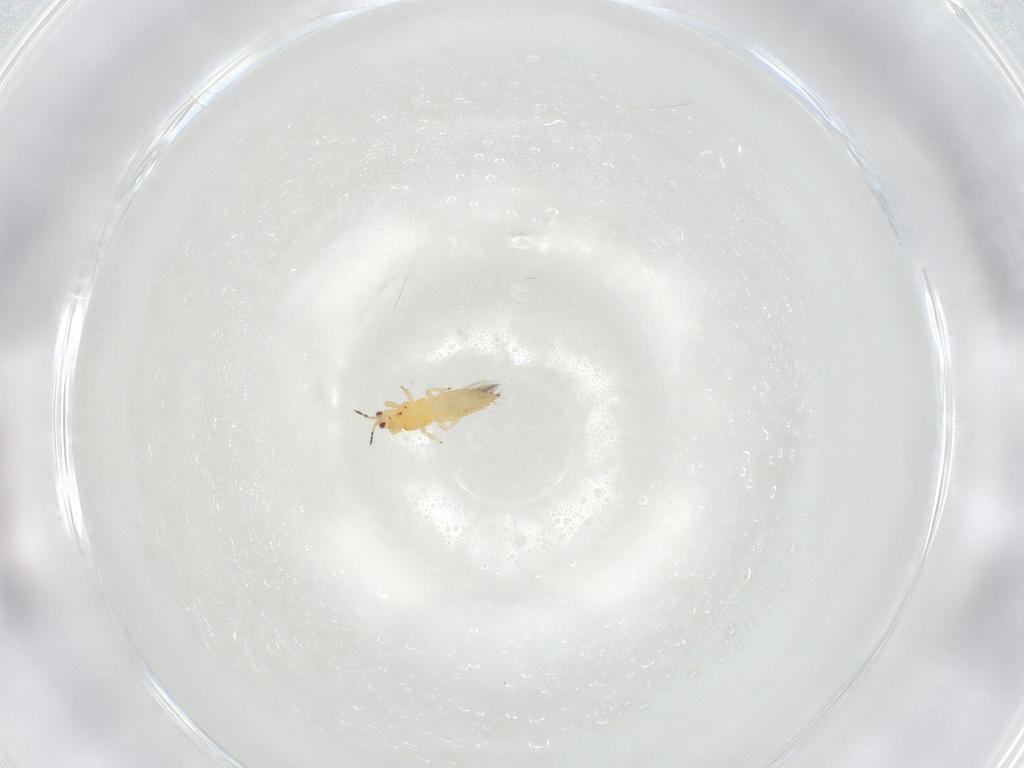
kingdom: Animalia
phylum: Arthropoda
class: Insecta
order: Thysanoptera
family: Thripidae
